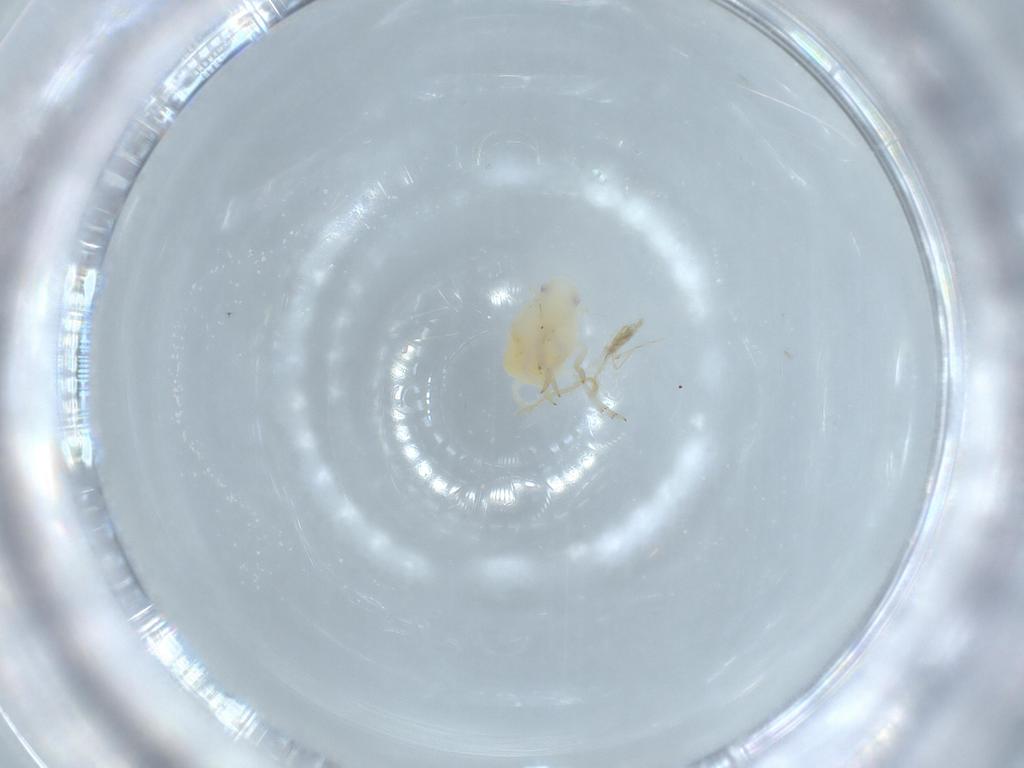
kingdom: Animalia
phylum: Arthropoda
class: Insecta
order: Hemiptera
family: Flatidae
